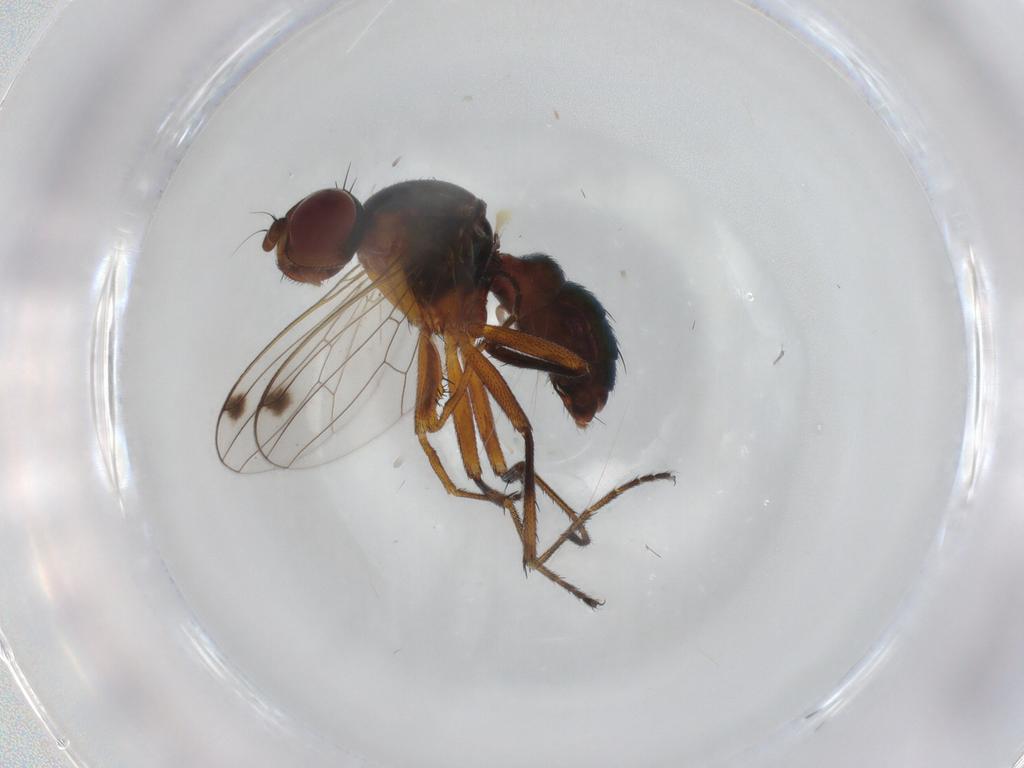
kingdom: Animalia
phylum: Arthropoda
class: Insecta
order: Diptera
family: Sepsidae
